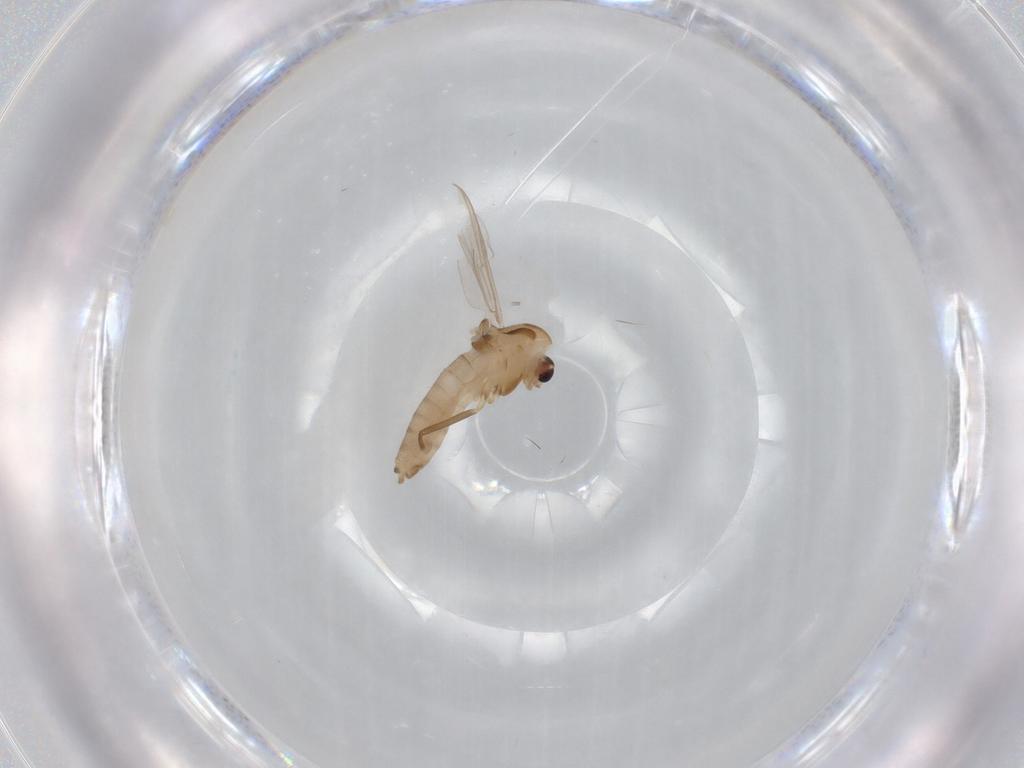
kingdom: Animalia
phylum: Arthropoda
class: Insecta
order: Diptera
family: Chironomidae
